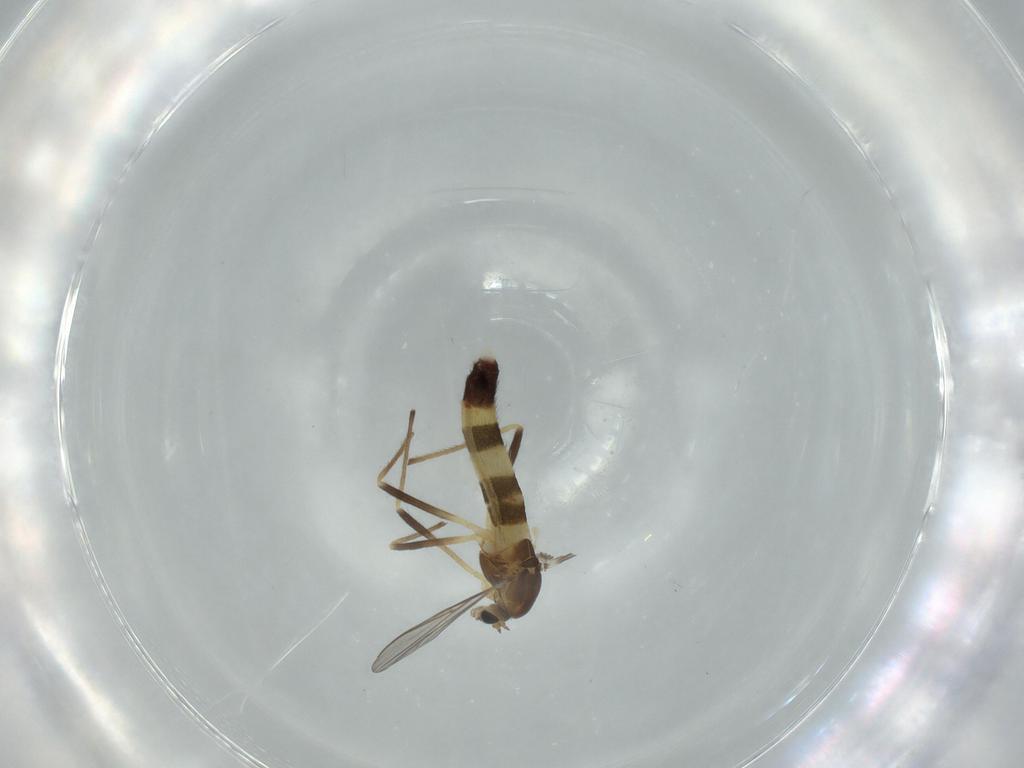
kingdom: Animalia
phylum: Arthropoda
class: Insecta
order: Diptera
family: Chironomidae
